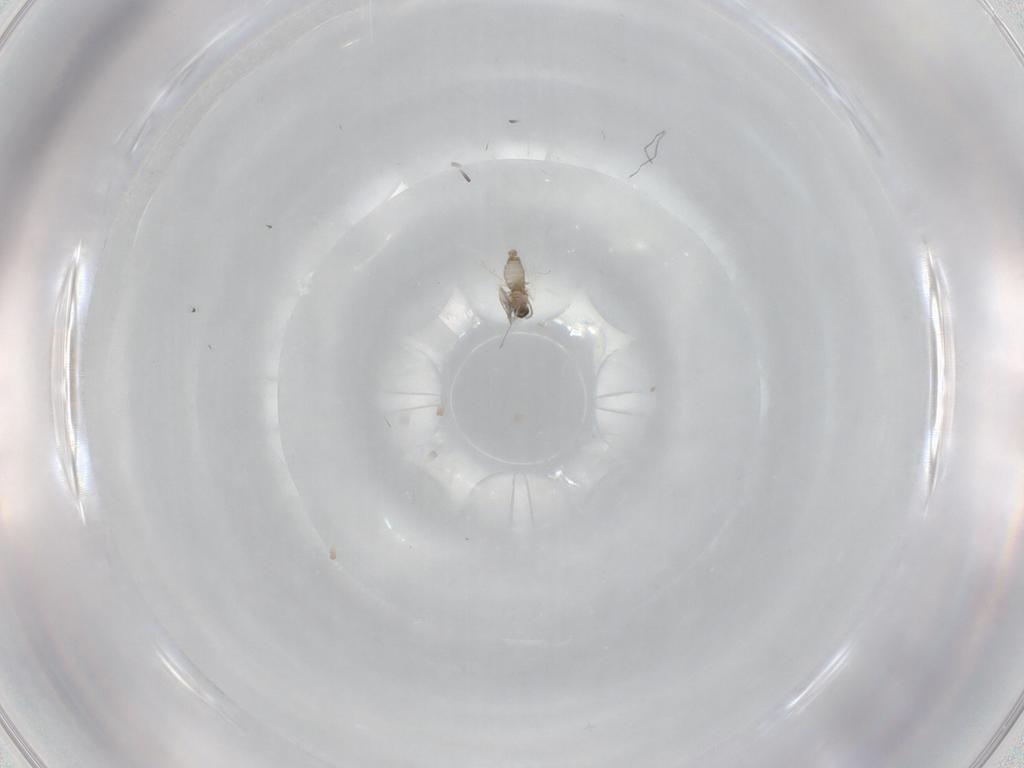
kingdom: Animalia
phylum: Arthropoda
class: Insecta
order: Diptera
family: Cecidomyiidae
